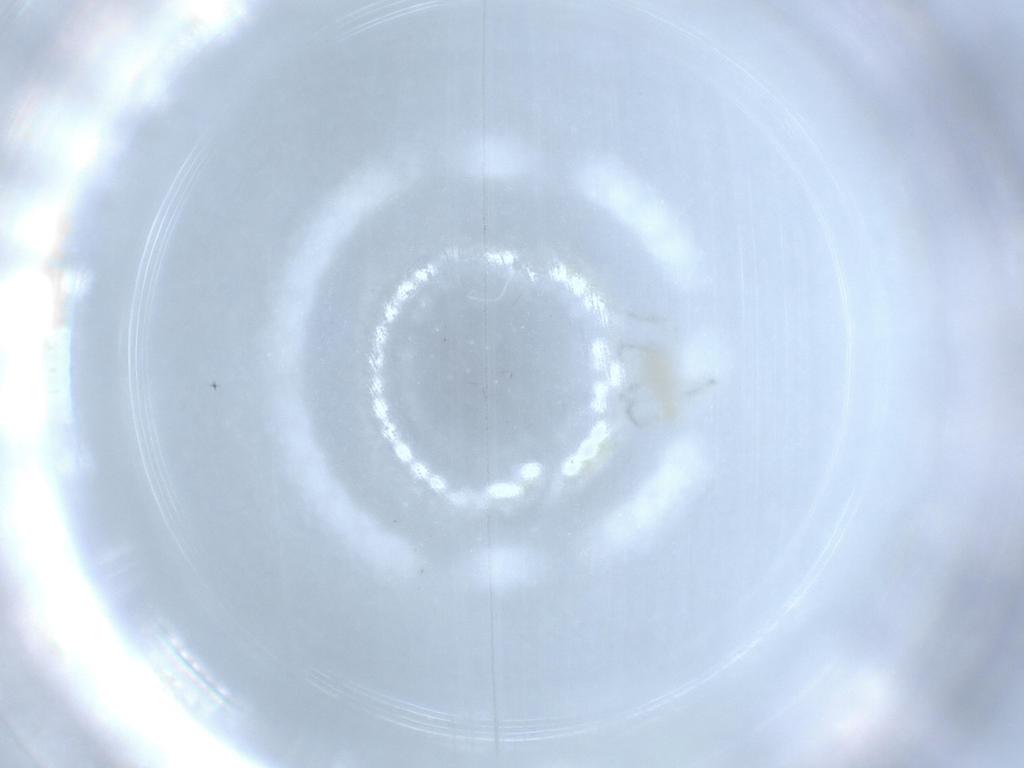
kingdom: Animalia
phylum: Arthropoda
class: Arachnida
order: Trombidiformes
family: Erythraeidae
